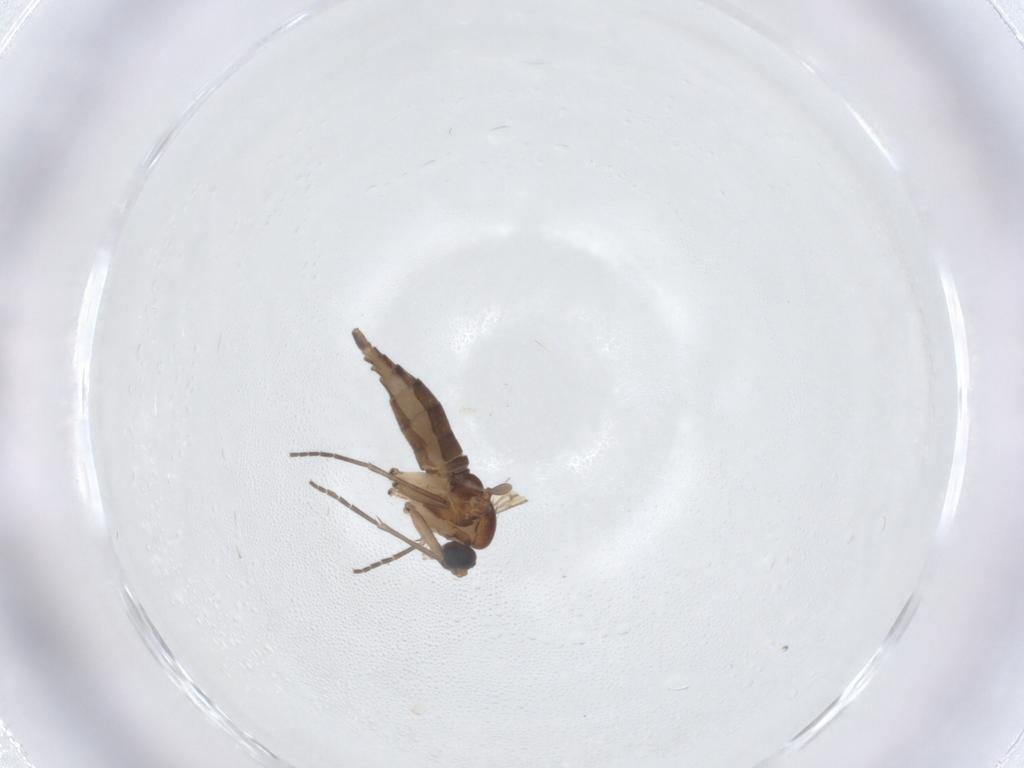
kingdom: Animalia
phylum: Arthropoda
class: Insecta
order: Diptera
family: Sciaridae
